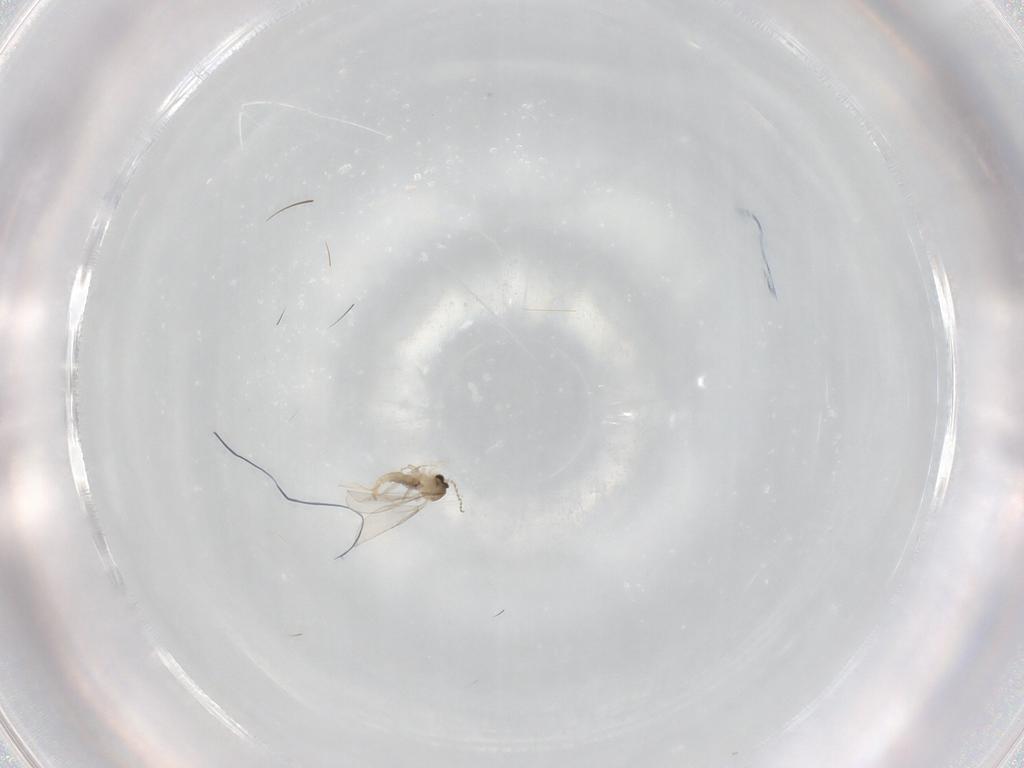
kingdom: Animalia
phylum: Arthropoda
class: Insecta
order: Diptera
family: Cecidomyiidae
